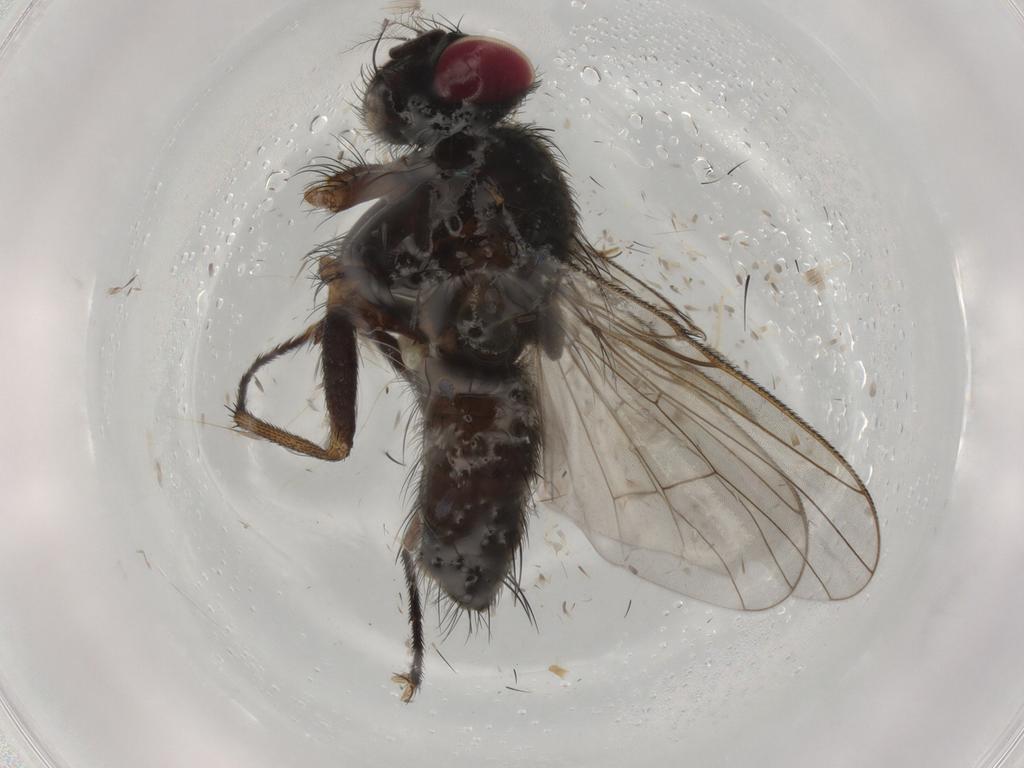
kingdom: Animalia
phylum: Arthropoda
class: Insecta
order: Diptera
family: Muscidae
